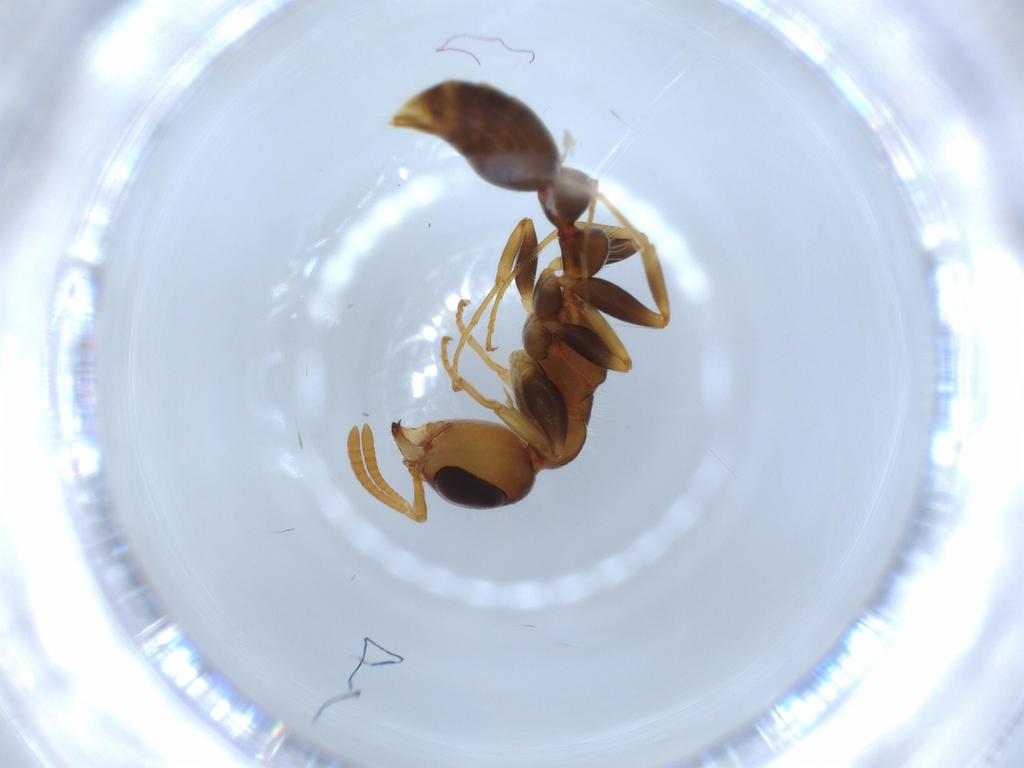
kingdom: Animalia
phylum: Arthropoda
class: Insecta
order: Hymenoptera
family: Formicidae
